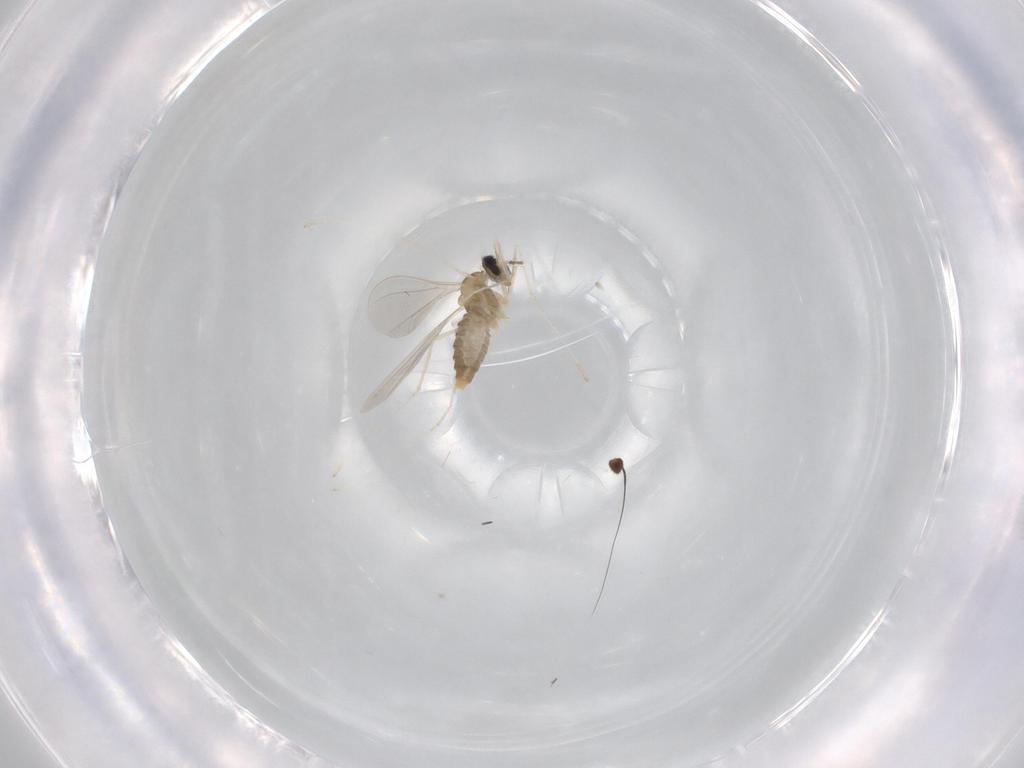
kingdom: Animalia
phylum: Arthropoda
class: Insecta
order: Diptera
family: Cecidomyiidae
